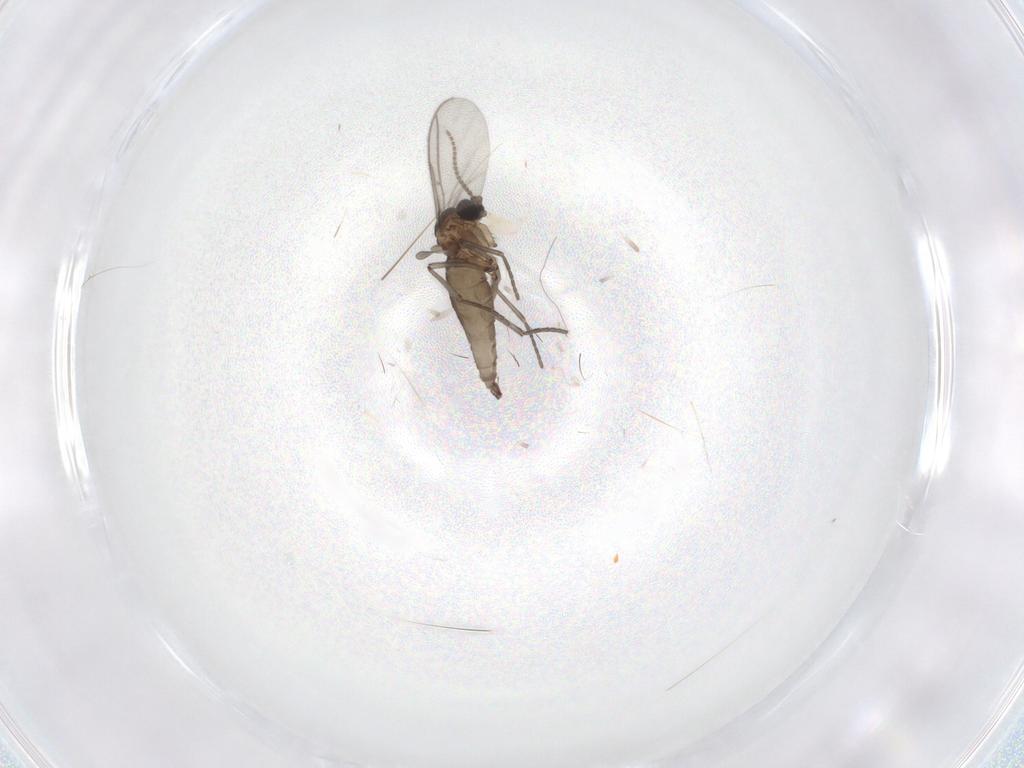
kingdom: Animalia
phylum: Arthropoda
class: Insecta
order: Diptera
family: Sciaridae
